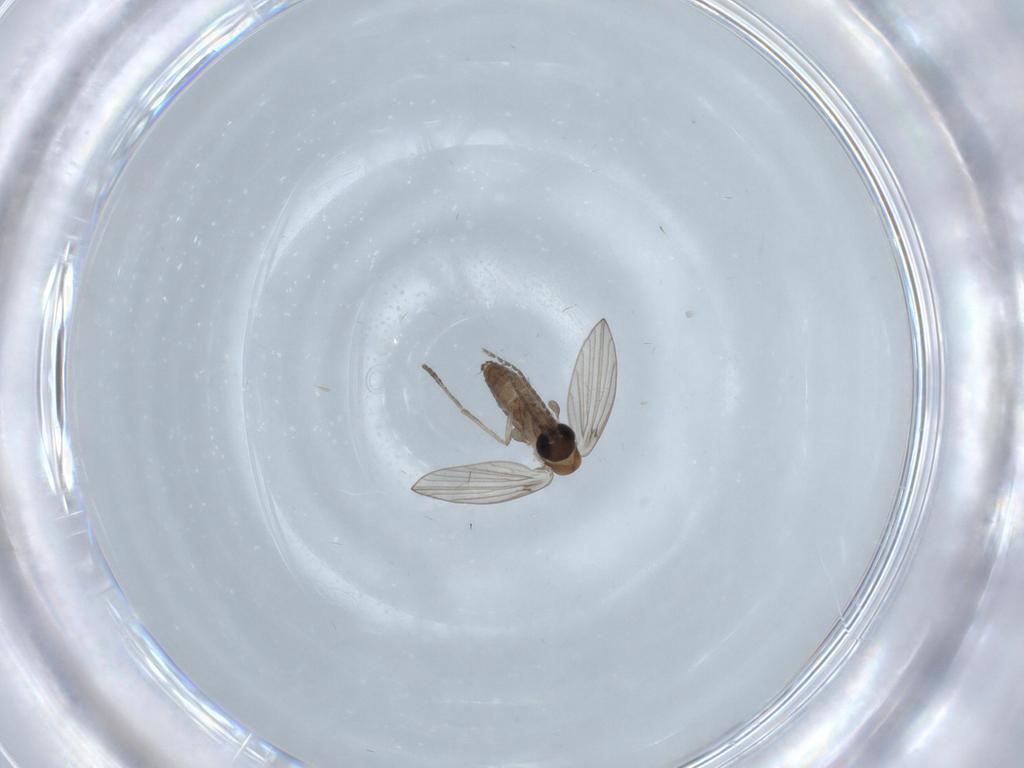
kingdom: Animalia
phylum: Arthropoda
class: Insecta
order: Diptera
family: Psychodidae
